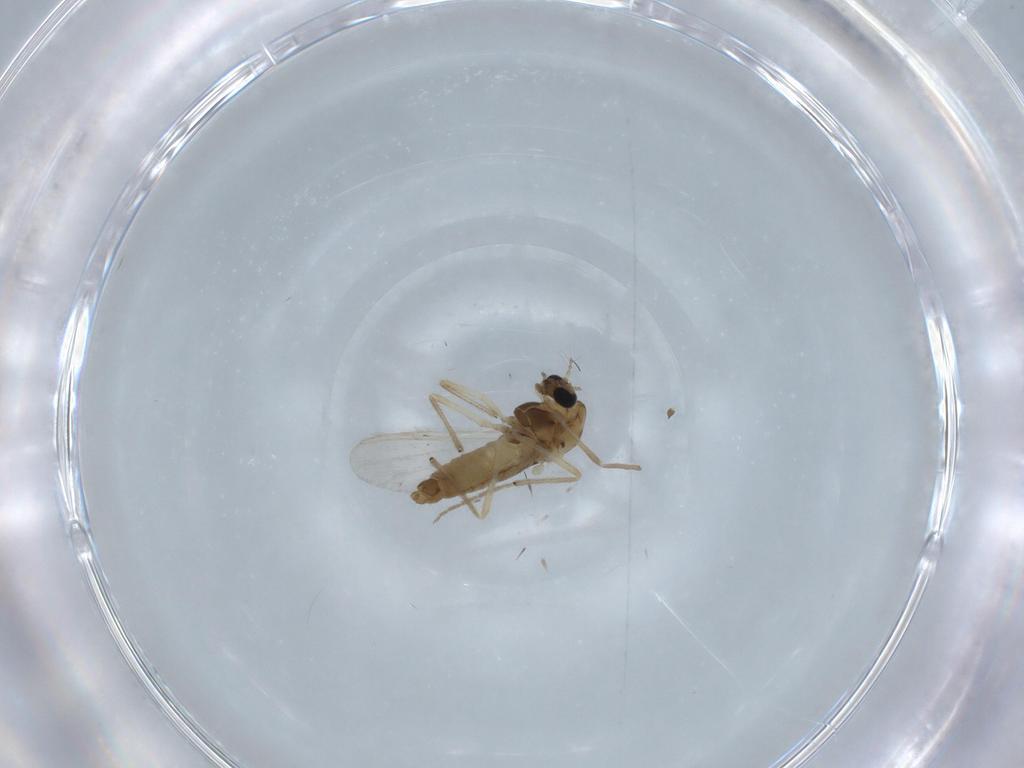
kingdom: Animalia
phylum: Arthropoda
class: Insecta
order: Diptera
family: Chironomidae
